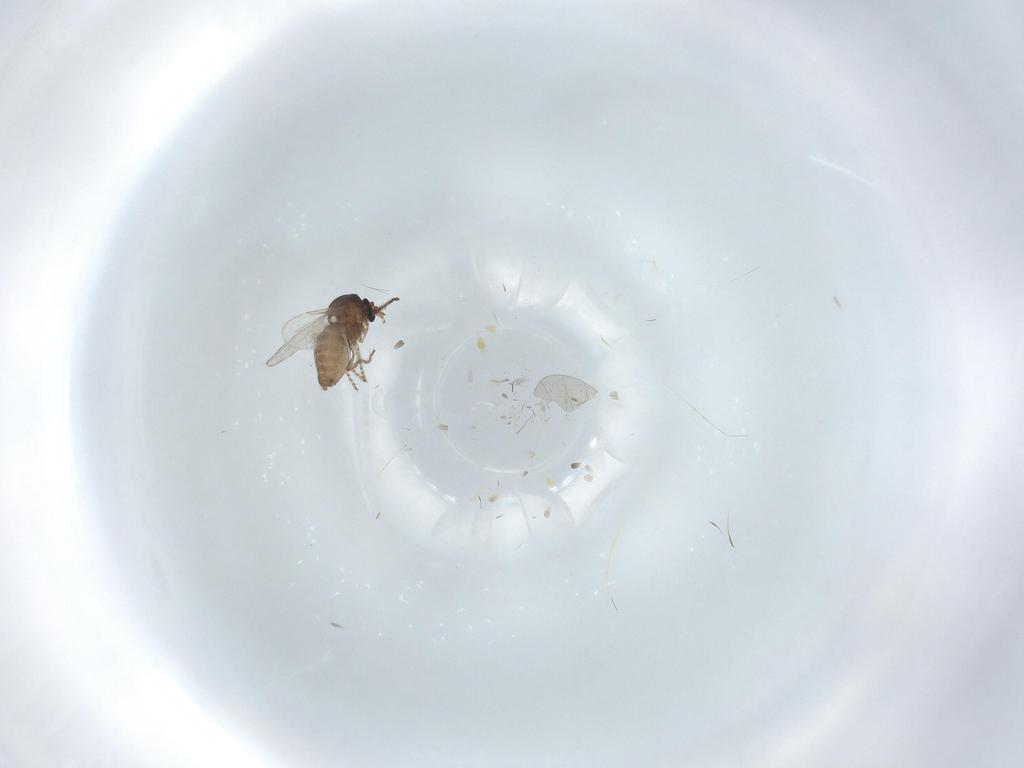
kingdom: Animalia
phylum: Arthropoda
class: Insecta
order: Diptera
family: Ceratopogonidae
